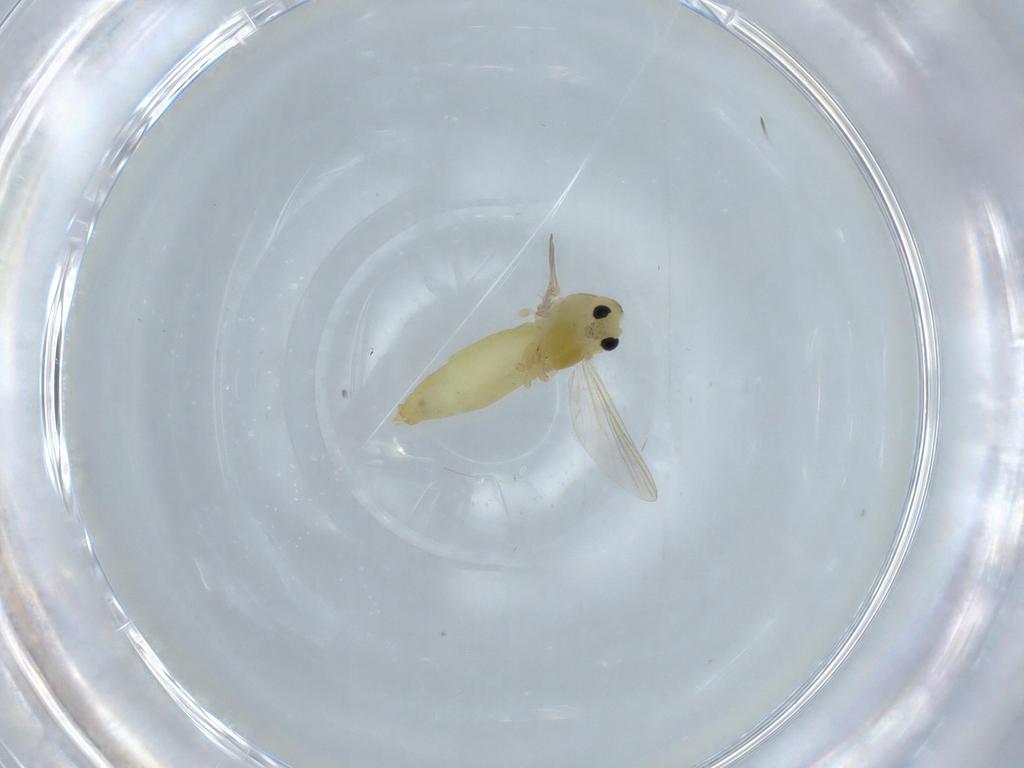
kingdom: Animalia
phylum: Arthropoda
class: Insecta
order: Diptera
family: Chironomidae
